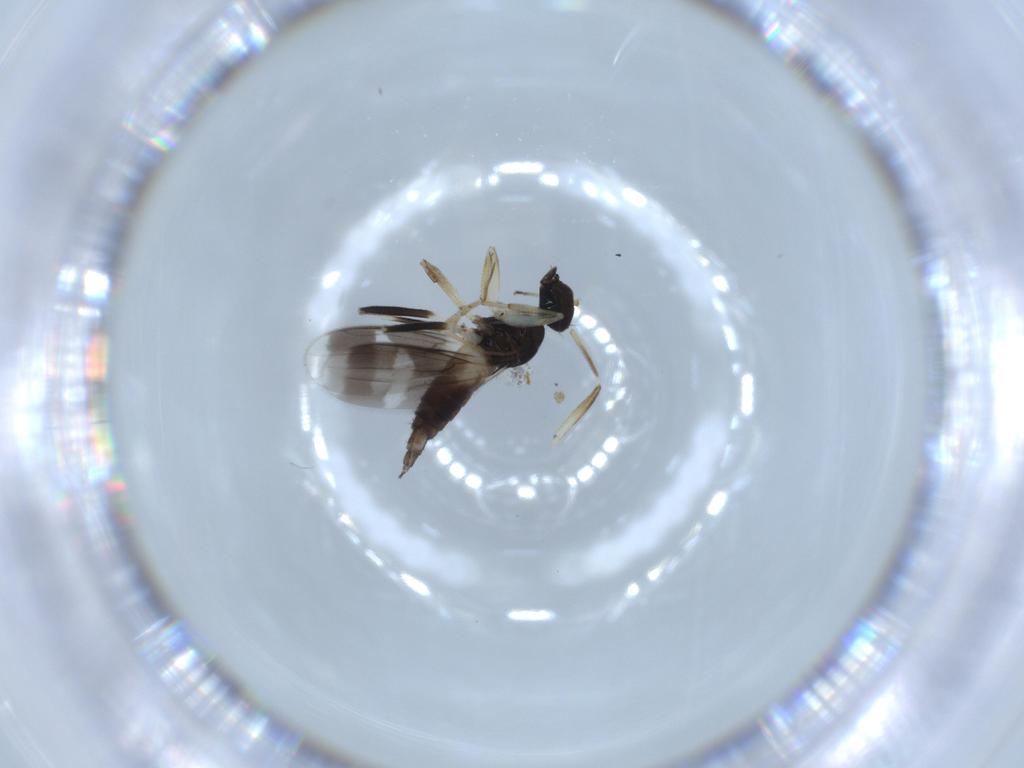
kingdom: Animalia
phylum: Arthropoda
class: Insecta
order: Diptera
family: Hybotidae
